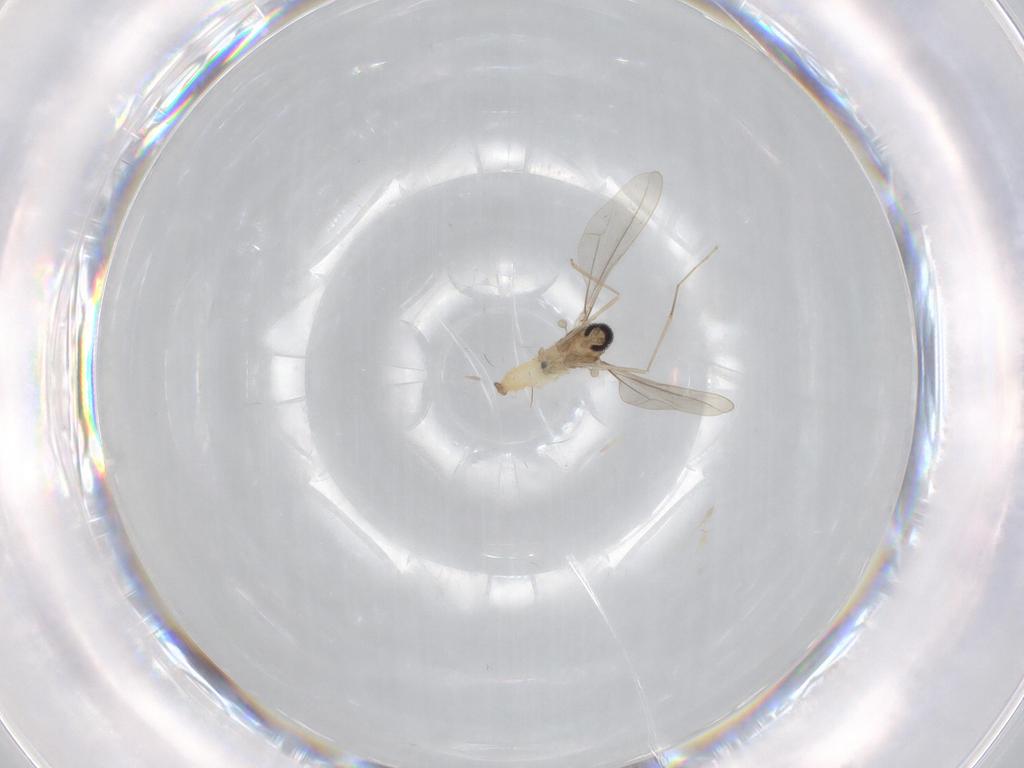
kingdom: Animalia
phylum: Arthropoda
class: Insecta
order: Diptera
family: Cecidomyiidae
